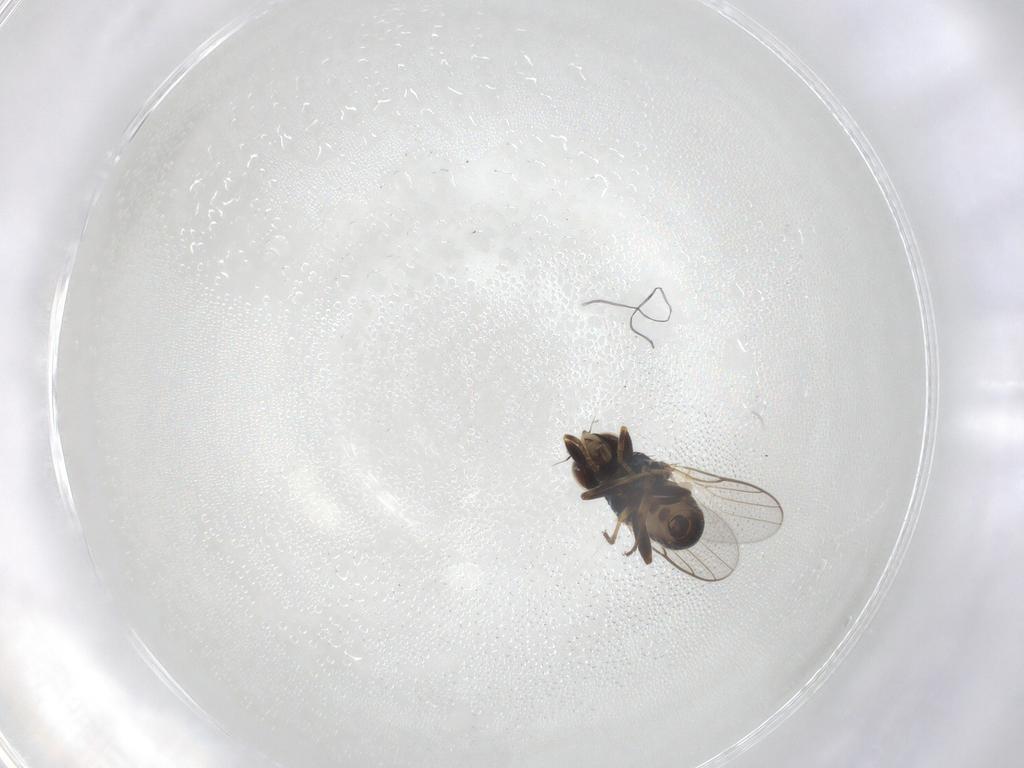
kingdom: Animalia
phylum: Arthropoda
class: Insecta
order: Diptera
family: Chloropidae
